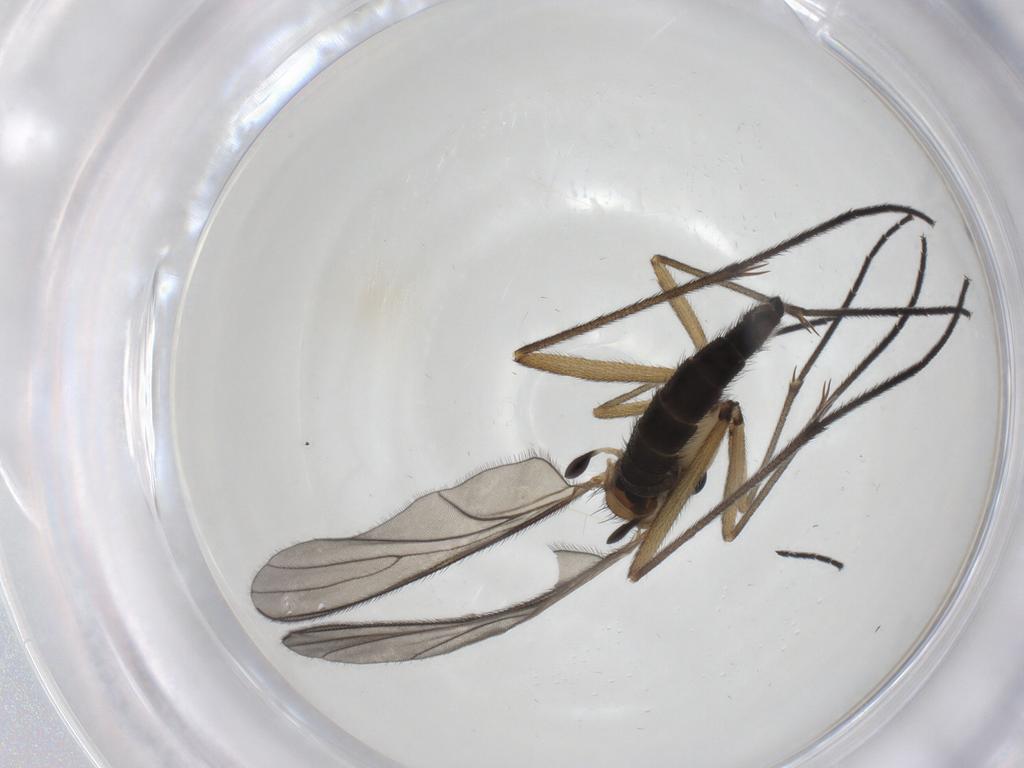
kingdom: Animalia
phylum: Arthropoda
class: Insecta
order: Diptera
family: Sciaridae
